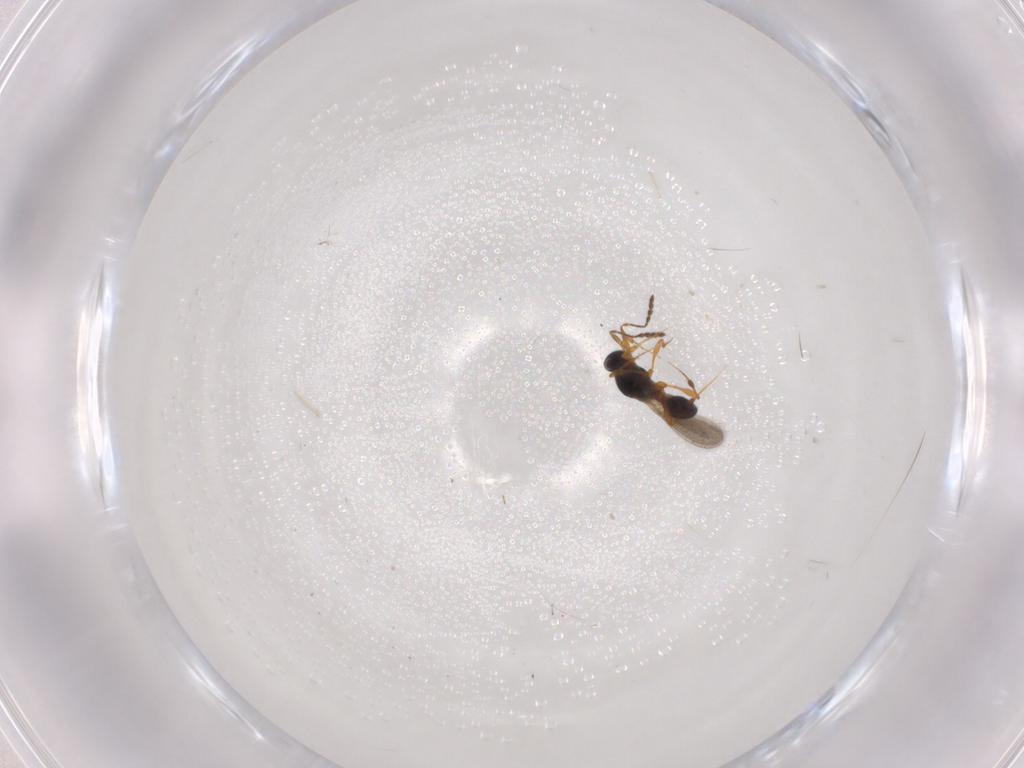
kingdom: Animalia
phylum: Arthropoda
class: Insecta
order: Hymenoptera
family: Platygastridae
